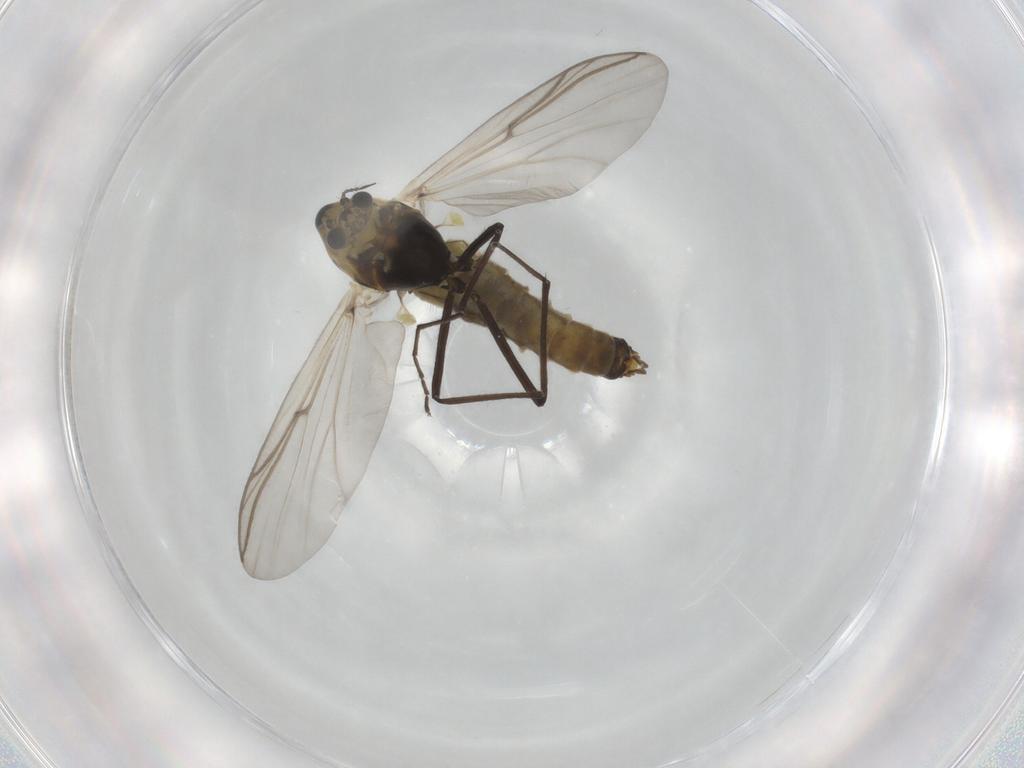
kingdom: Animalia
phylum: Arthropoda
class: Insecta
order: Diptera
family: Chironomidae
